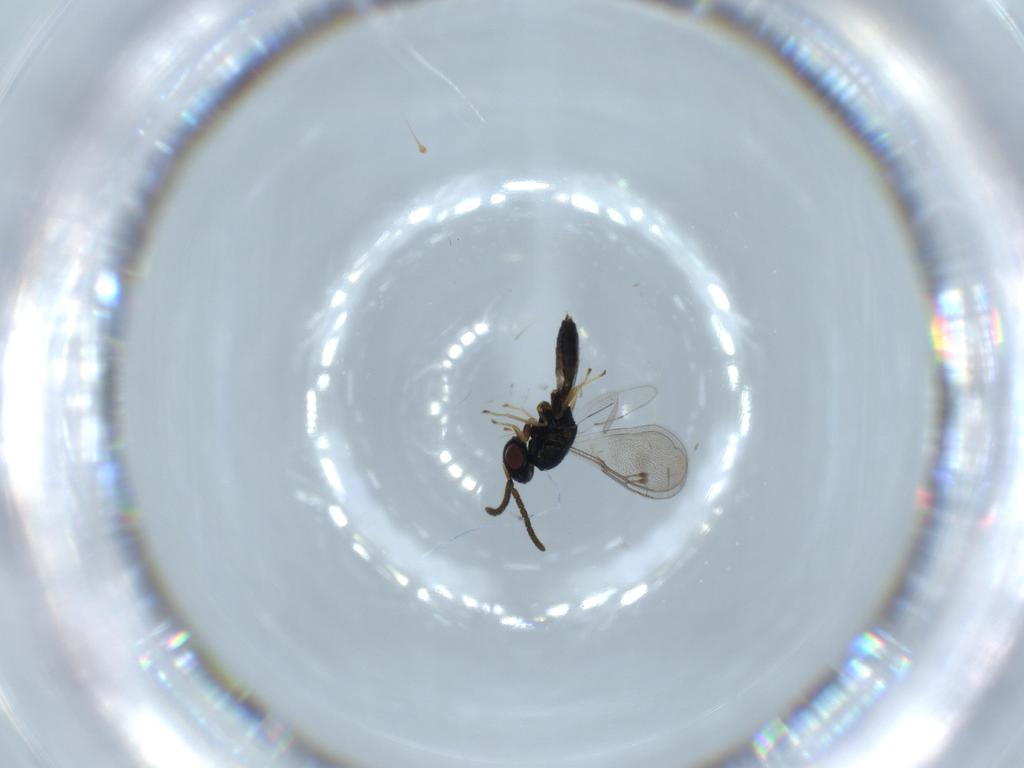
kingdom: Animalia
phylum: Arthropoda
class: Insecta
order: Hymenoptera
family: Pteromalidae
